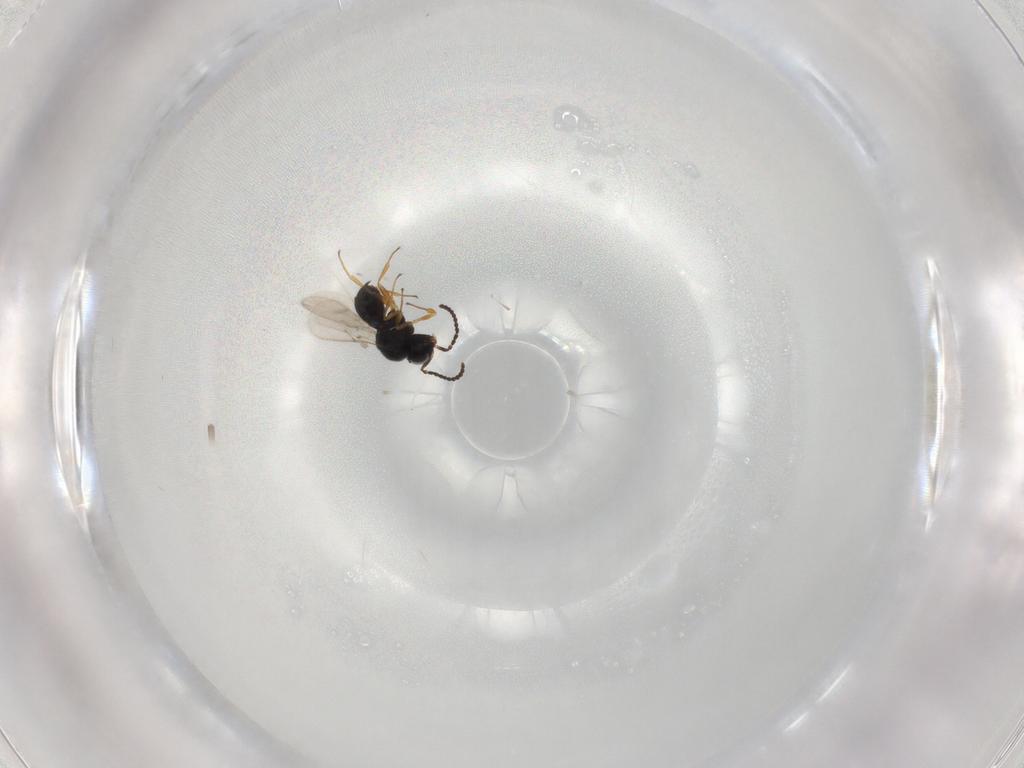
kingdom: Animalia
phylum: Arthropoda
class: Insecta
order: Hymenoptera
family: Scelionidae
